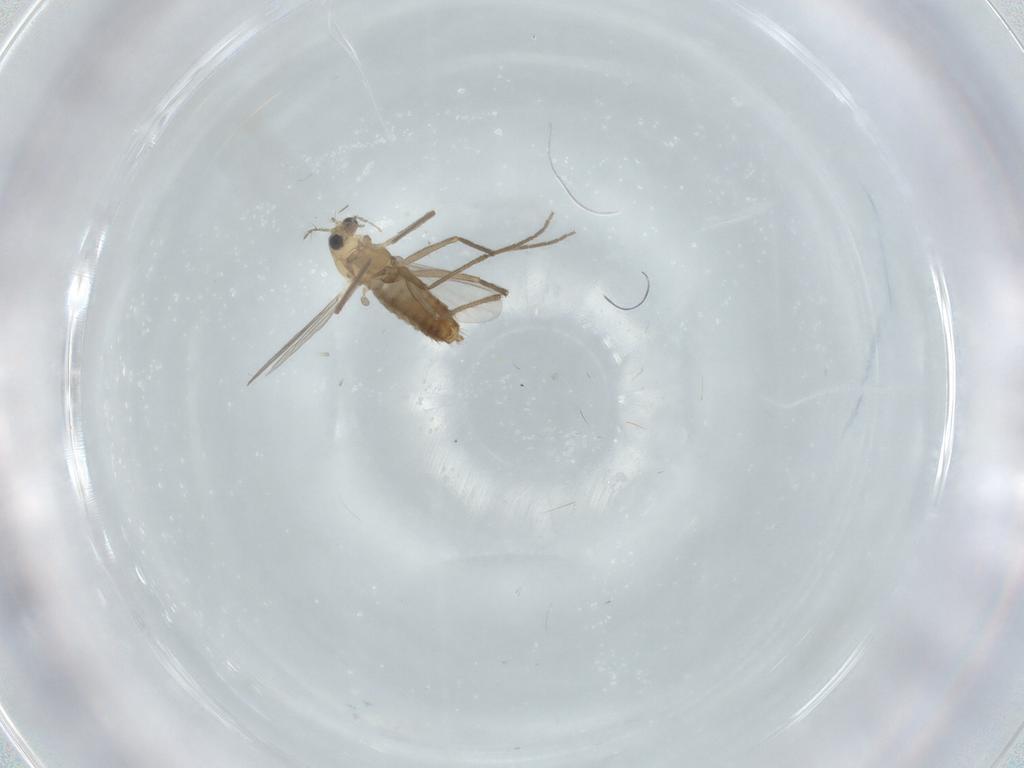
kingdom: Animalia
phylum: Arthropoda
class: Insecta
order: Diptera
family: Chironomidae
